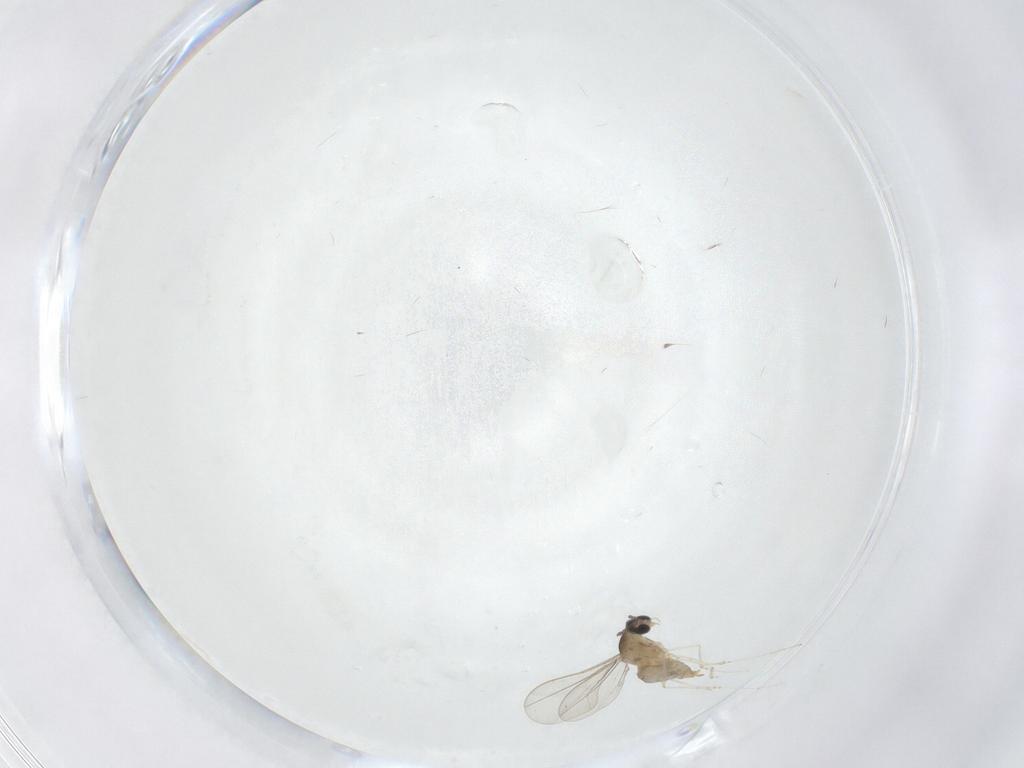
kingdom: Animalia
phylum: Arthropoda
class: Insecta
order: Diptera
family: Cecidomyiidae
